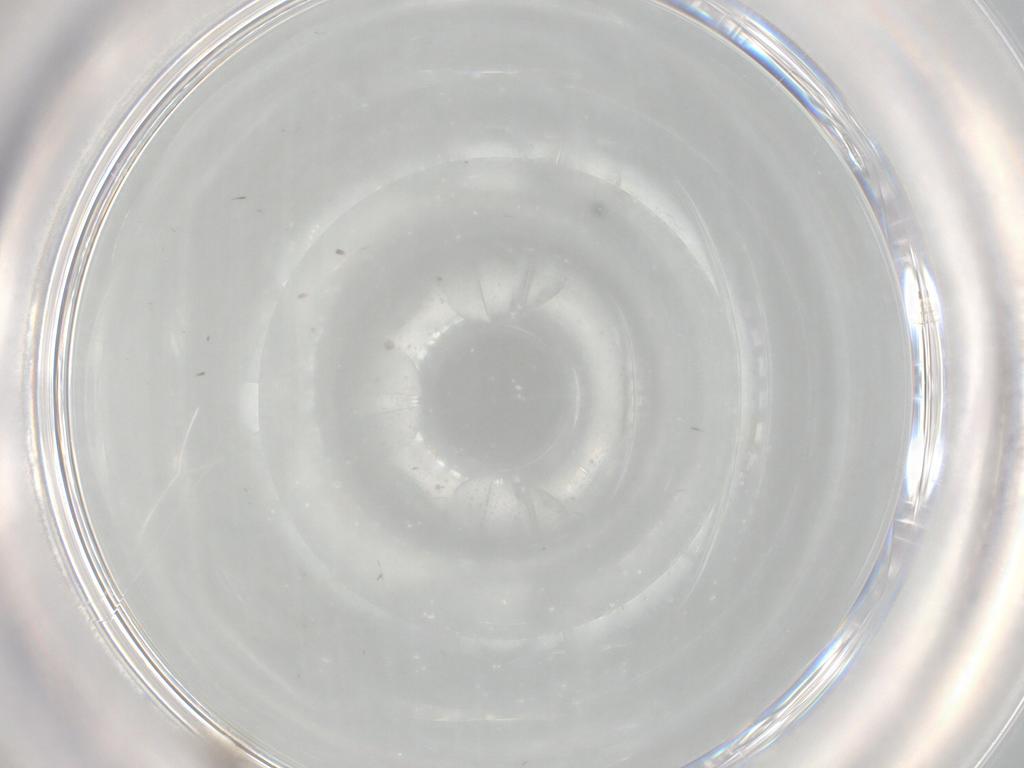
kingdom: Animalia
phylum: Arthropoda
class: Insecta
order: Diptera
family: Cecidomyiidae
